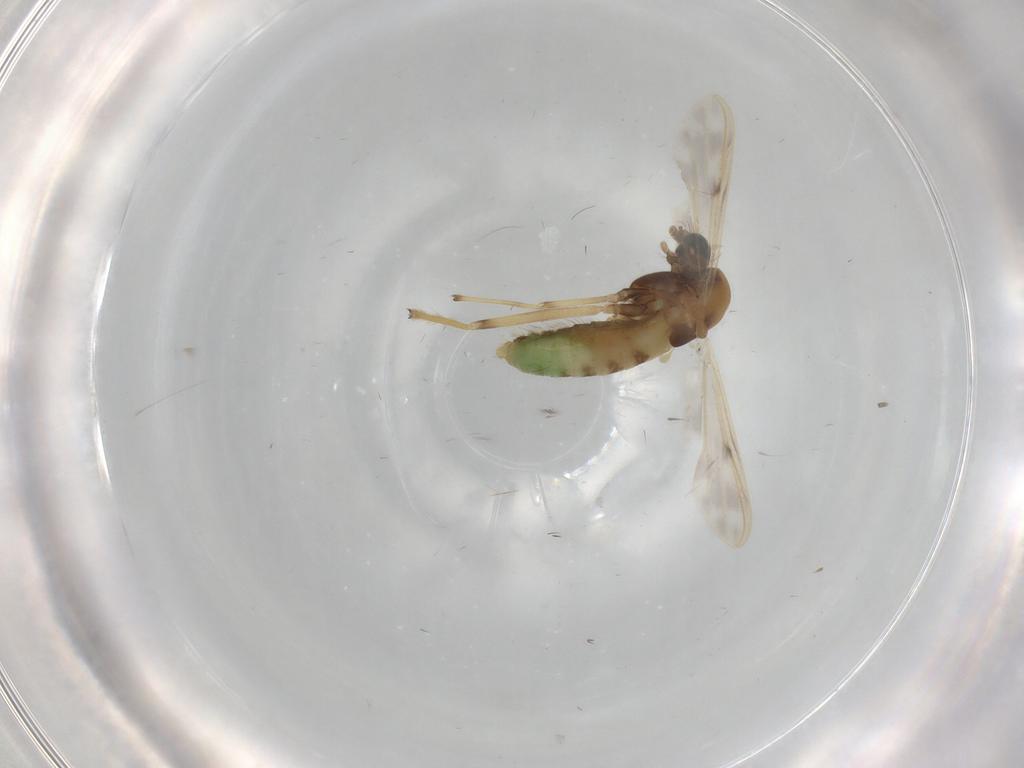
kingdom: Animalia
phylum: Arthropoda
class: Insecta
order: Diptera
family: Chironomidae
